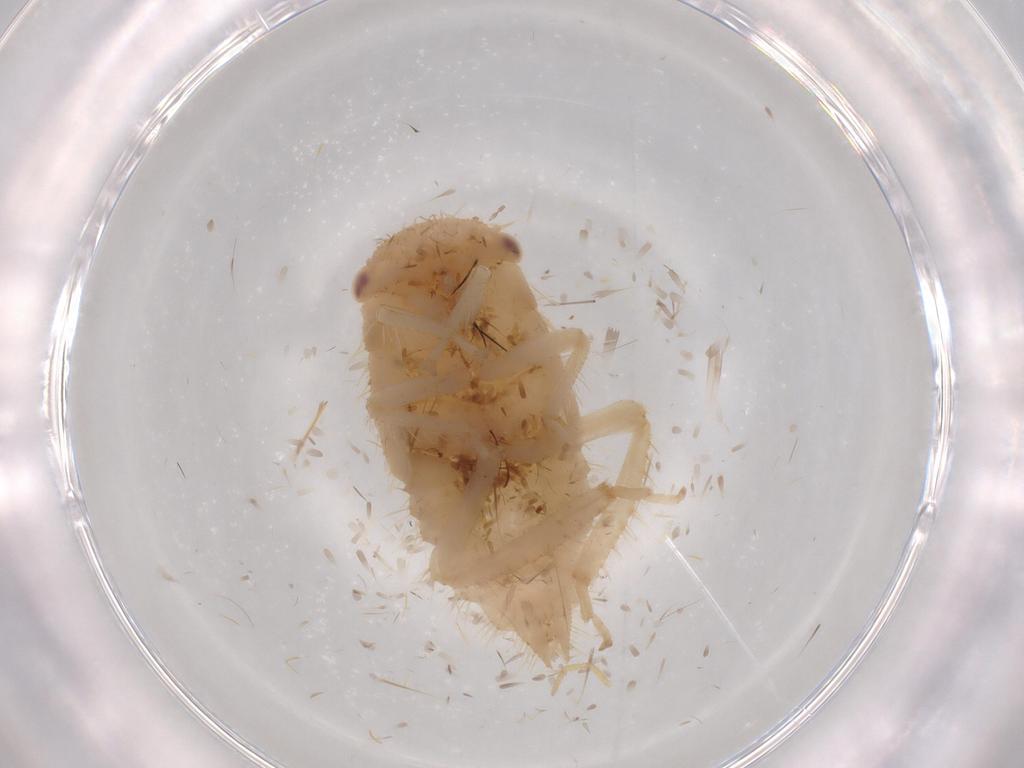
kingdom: Animalia
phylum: Arthropoda
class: Insecta
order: Hemiptera
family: Cicadellidae
